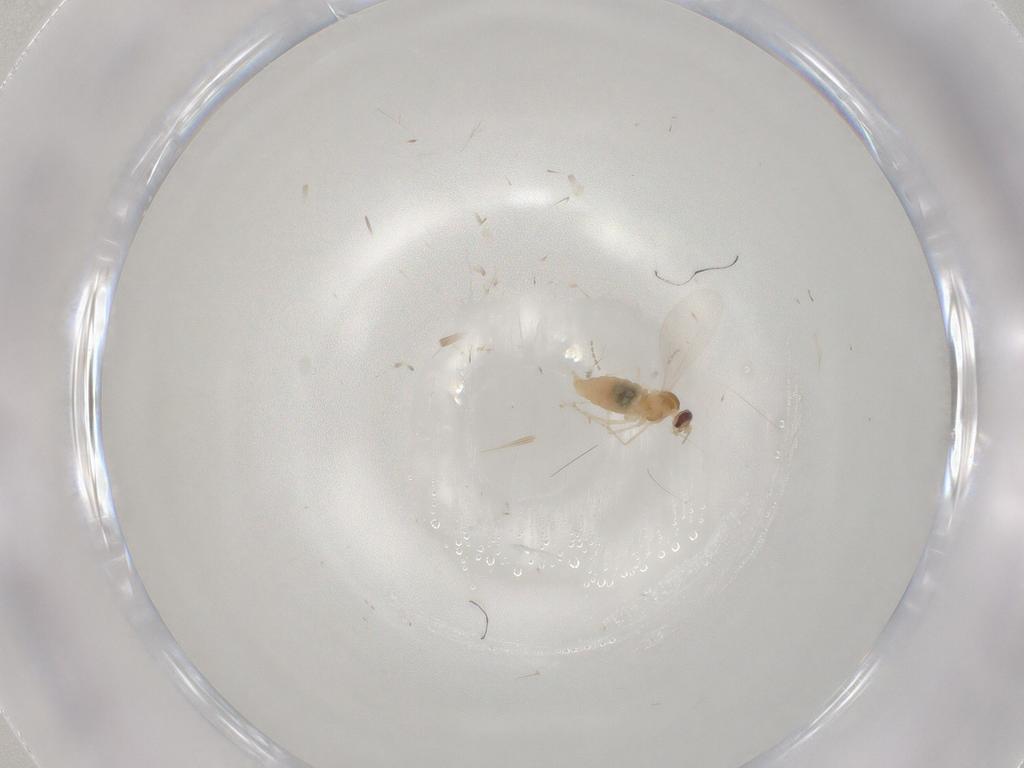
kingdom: Animalia
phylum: Arthropoda
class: Insecta
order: Diptera
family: Cecidomyiidae
